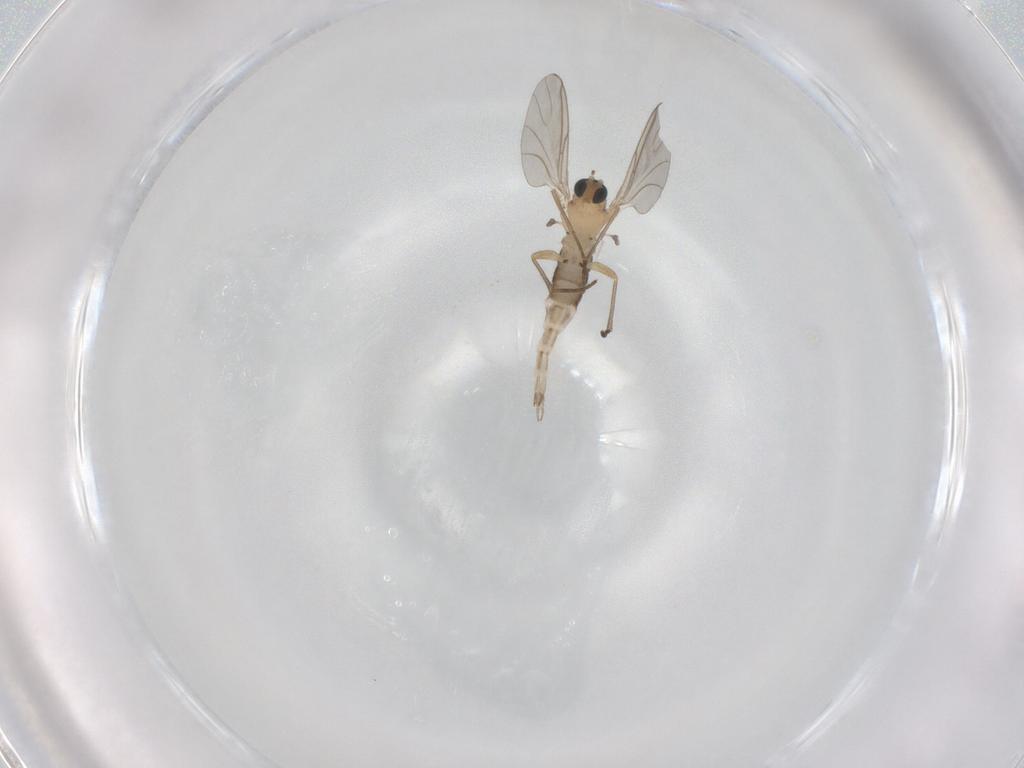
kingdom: Animalia
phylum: Arthropoda
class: Insecta
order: Diptera
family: Sciaridae
